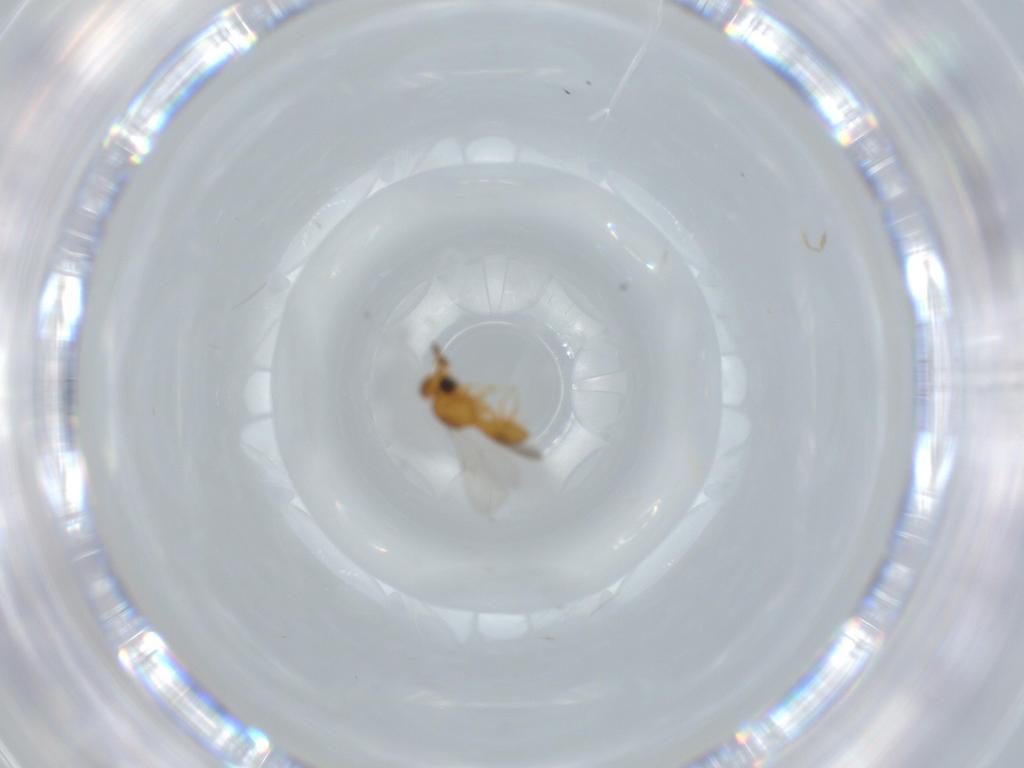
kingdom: Animalia
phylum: Arthropoda
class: Insecta
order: Hymenoptera
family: Scelionidae
